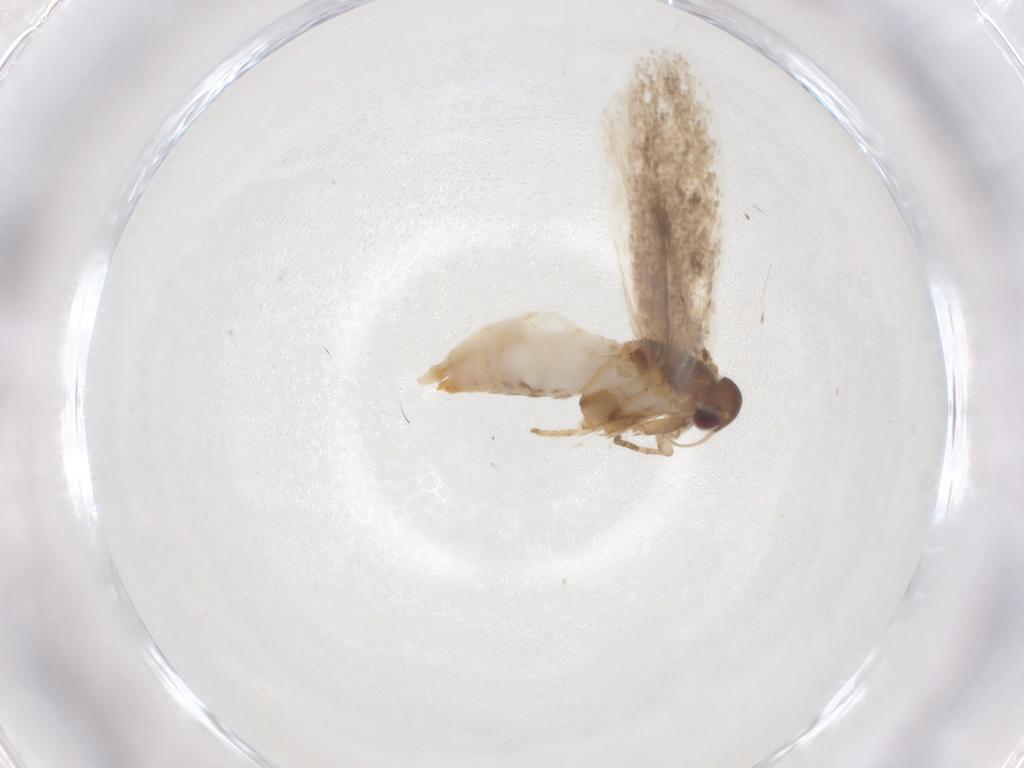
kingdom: Animalia
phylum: Arthropoda
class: Insecta
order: Lepidoptera
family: Gelechiidae
